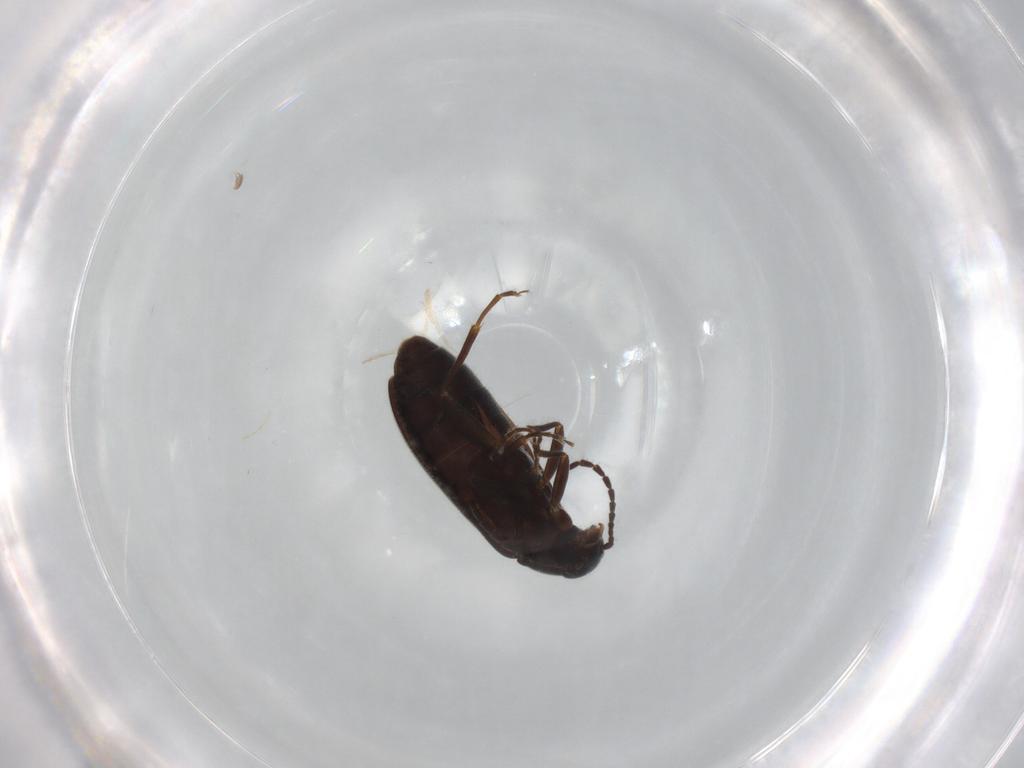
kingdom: Animalia
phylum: Arthropoda
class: Insecta
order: Coleoptera
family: Scraptiidae
